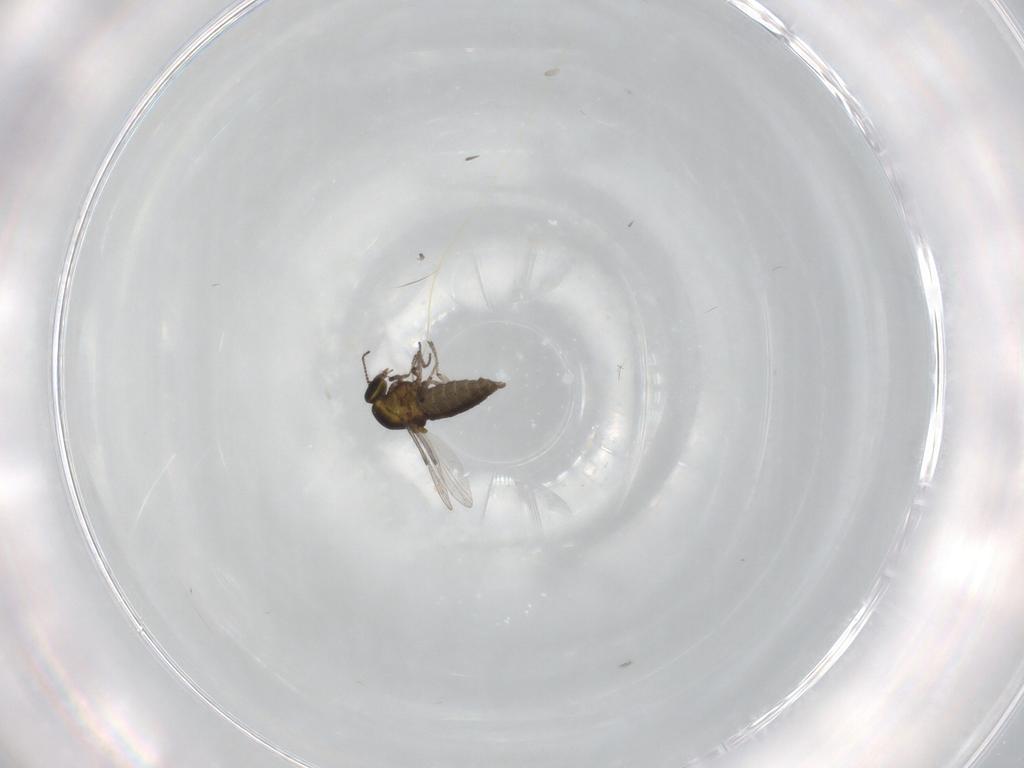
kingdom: Animalia
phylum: Arthropoda
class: Insecta
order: Diptera
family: Ceratopogonidae
